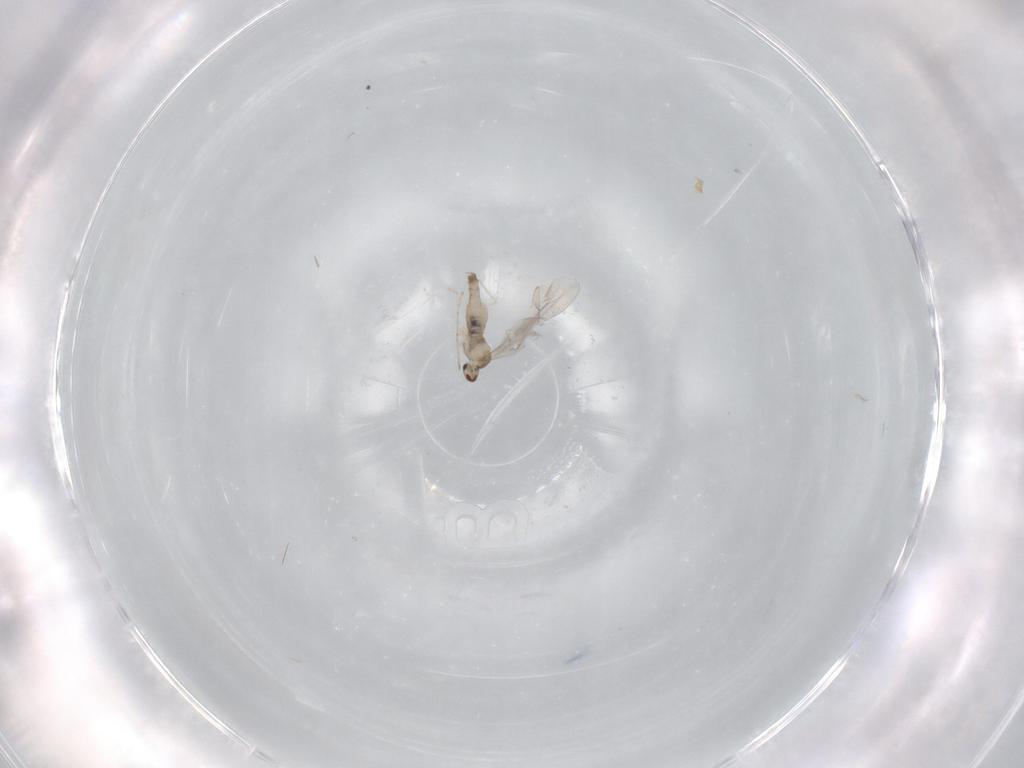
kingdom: Animalia
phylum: Arthropoda
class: Insecta
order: Diptera
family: Cecidomyiidae
